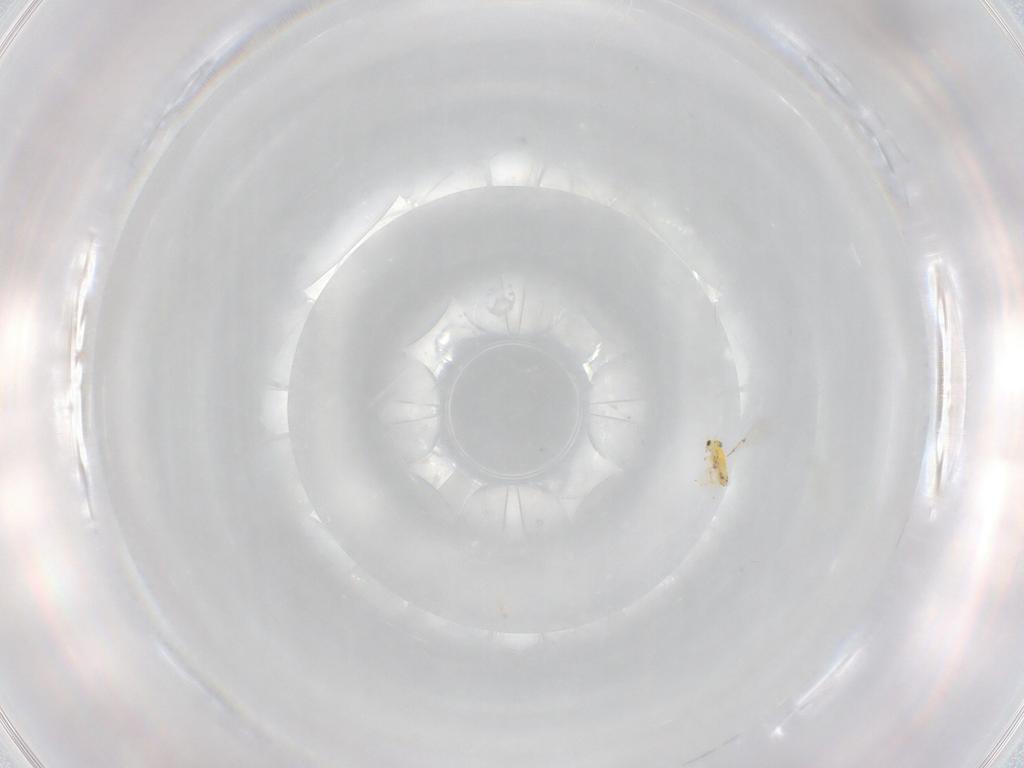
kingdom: Animalia
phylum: Arthropoda
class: Insecta
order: Hymenoptera
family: Trichogrammatidae
